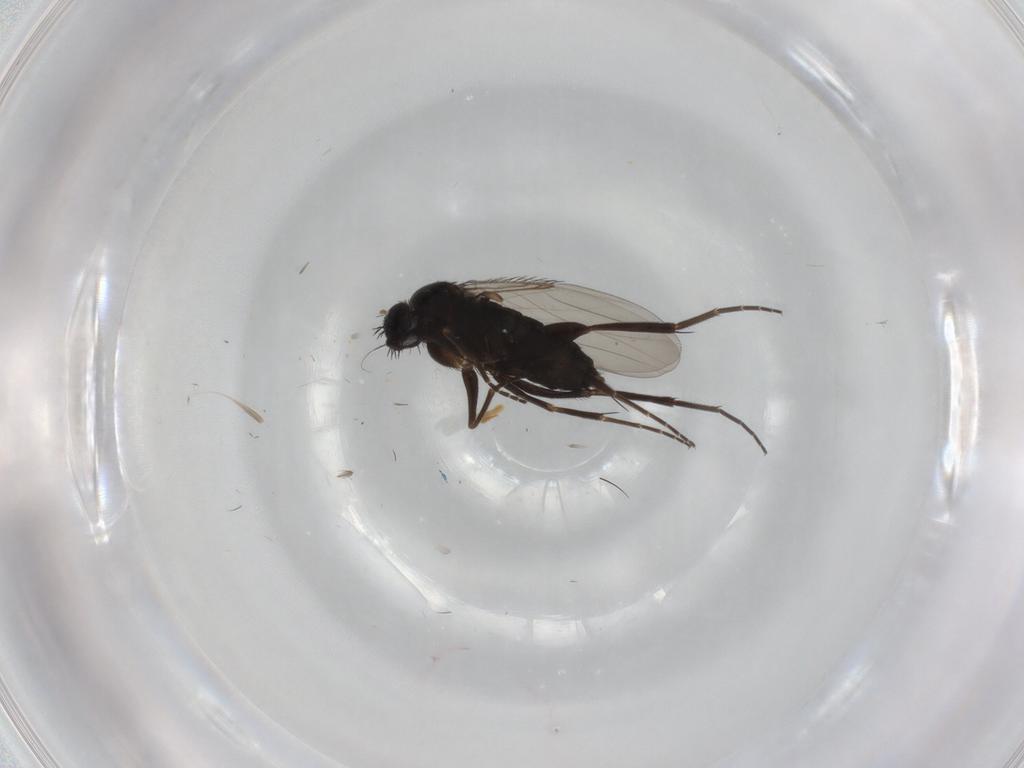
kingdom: Animalia
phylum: Arthropoda
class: Insecta
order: Diptera
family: Phoridae
